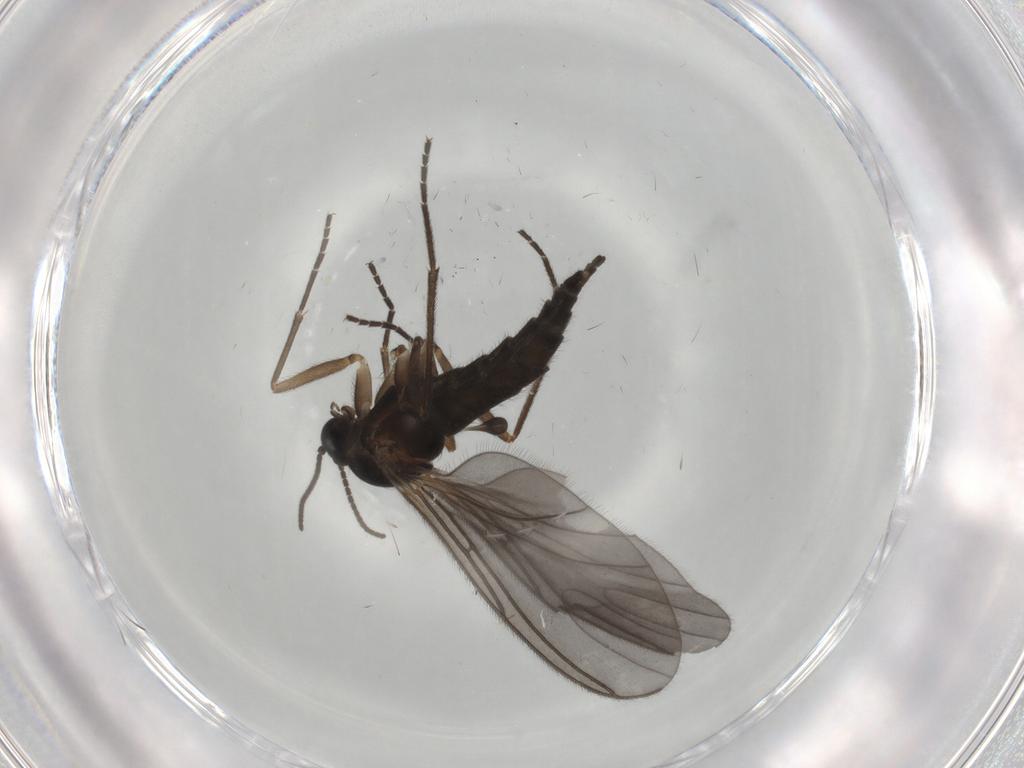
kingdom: Animalia
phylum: Arthropoda
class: Insecta
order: Diptera
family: Sciaridae
